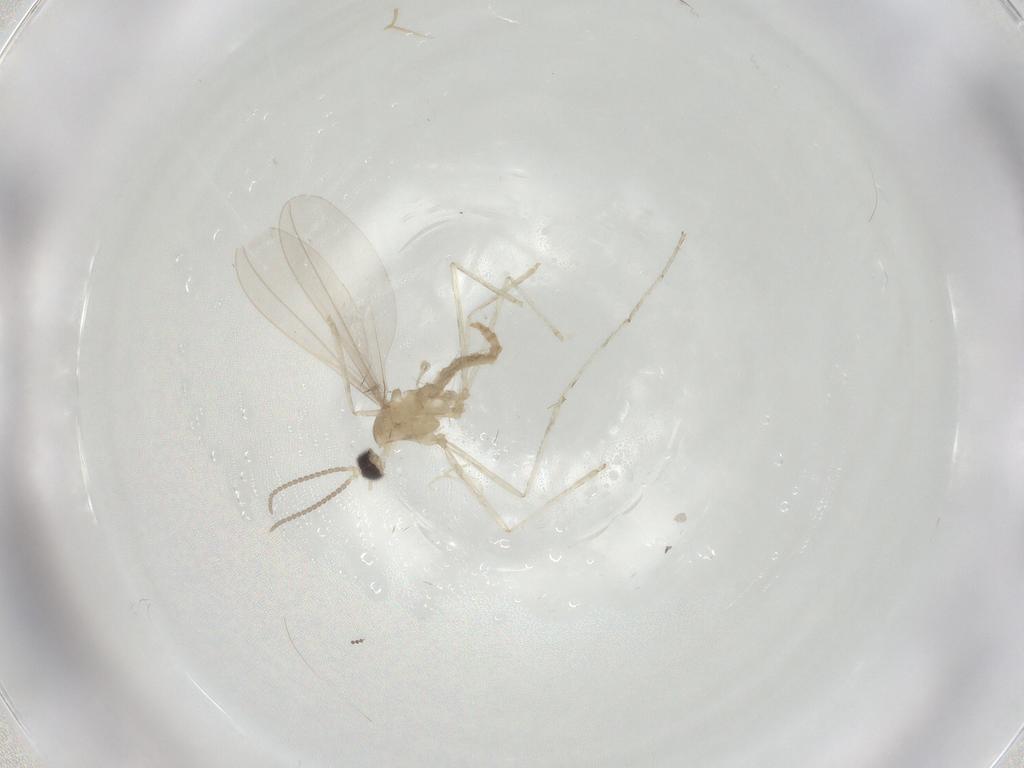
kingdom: Animalia
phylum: Arthropoda
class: Insecta
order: Diptera
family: Cecidomyiidae
